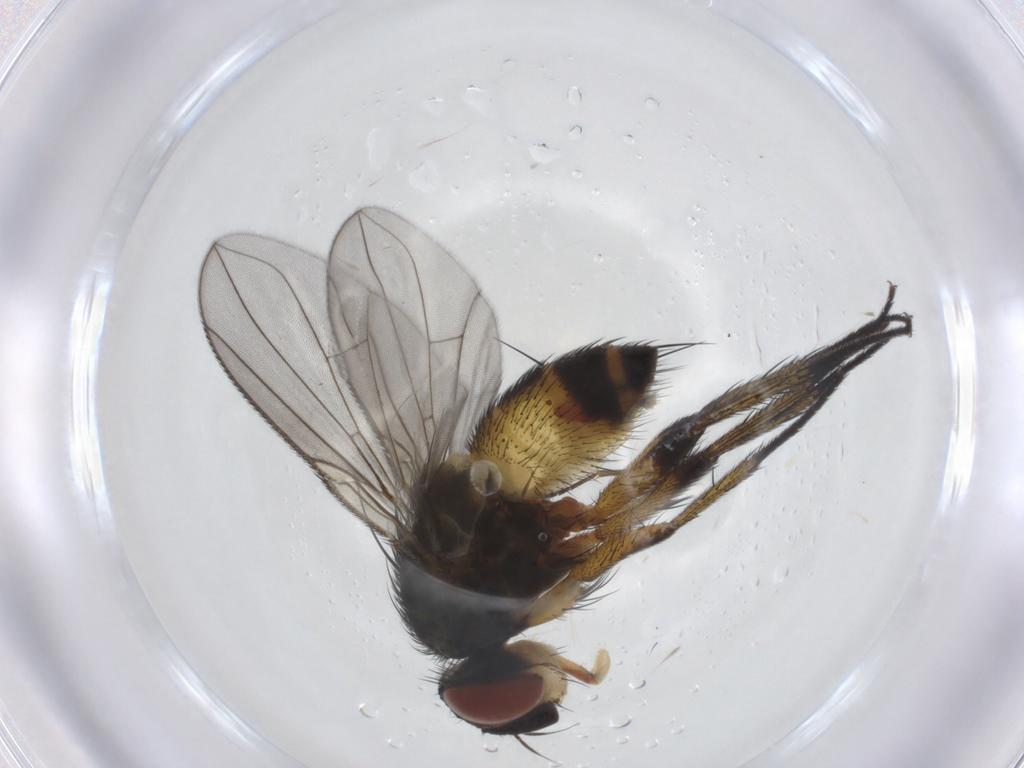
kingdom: Animalia
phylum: Arthropoda
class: Insecta
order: Diptera
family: Tachinidae
